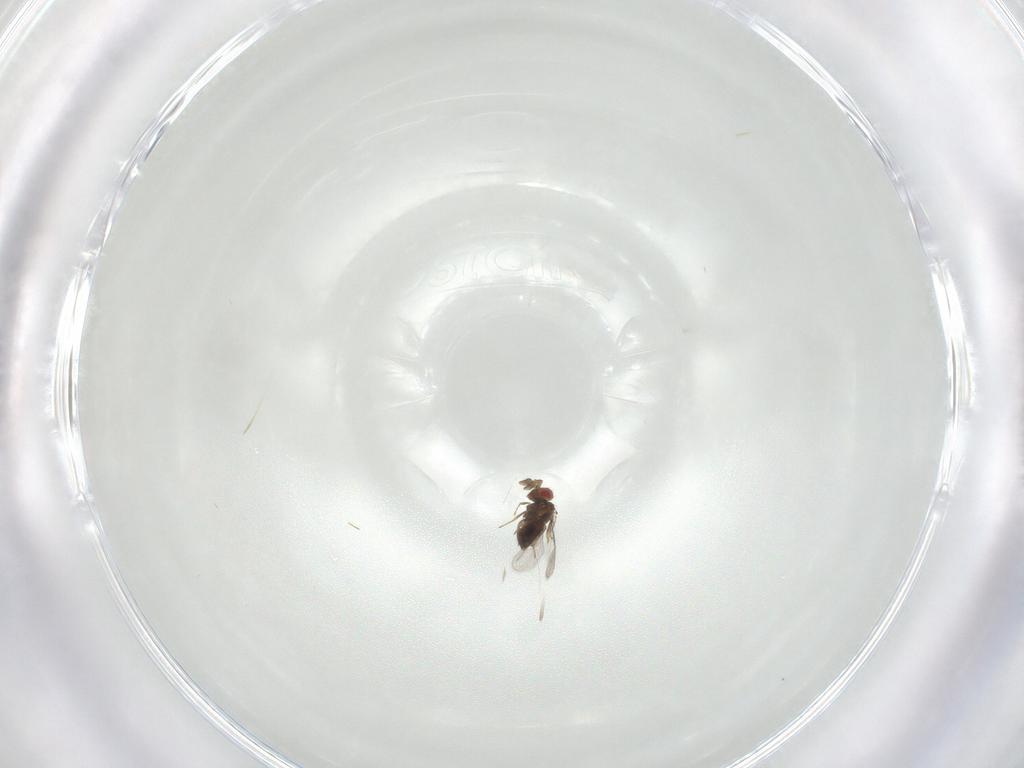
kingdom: Animalia
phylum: Arthropoda
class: Insecta
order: Hymenoptera
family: Trichogrammatidae
